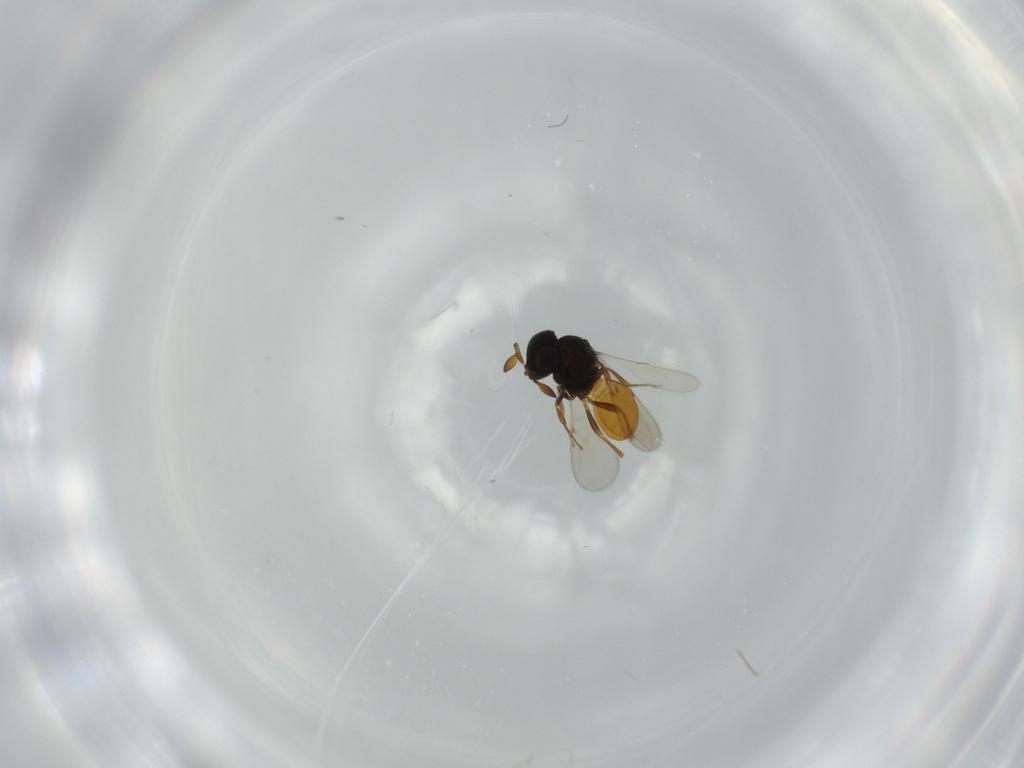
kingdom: Animalia
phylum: Arthropoda
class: Insecta
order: Hymenoptera
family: Scelionidae
